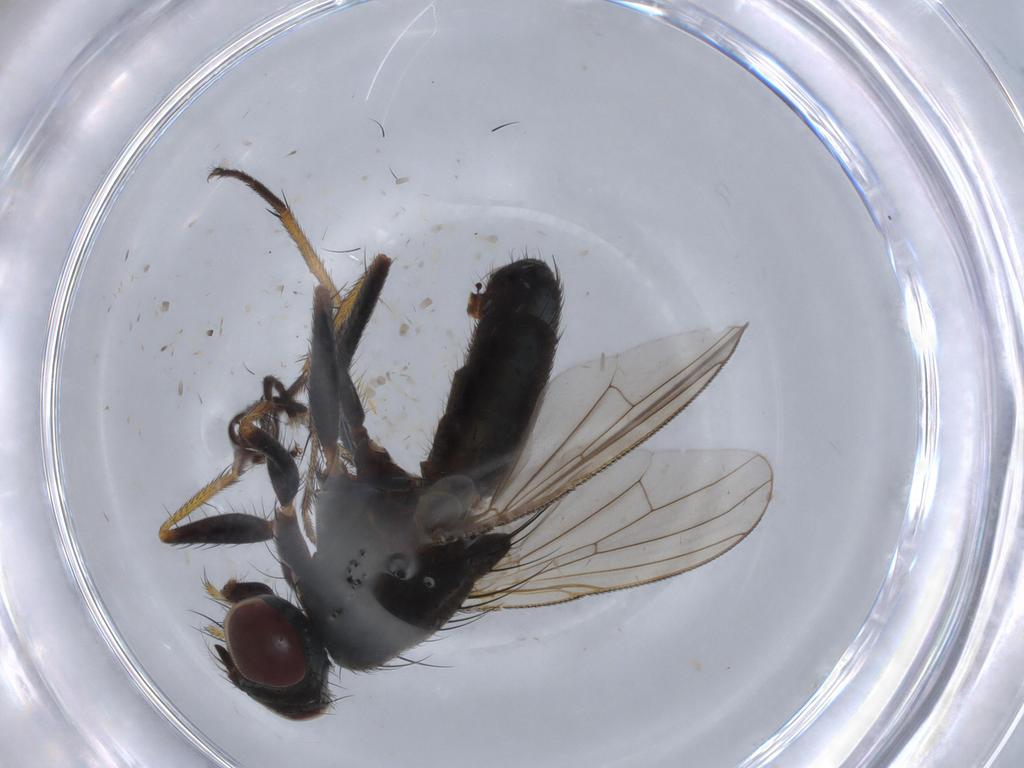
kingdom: Animalia
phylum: Arthropoda
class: Insecta
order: Diptera
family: Muscidae
